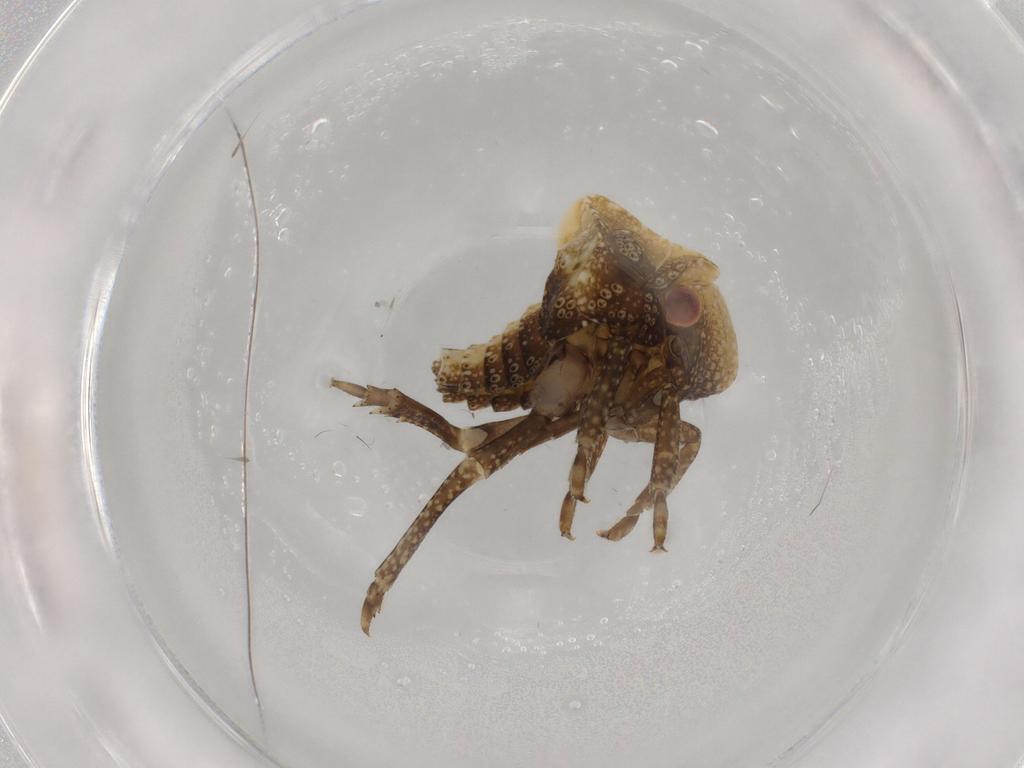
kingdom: Animalia
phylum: Arthropoda
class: Insecta
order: Hemiptera
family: Acanaloniidae
